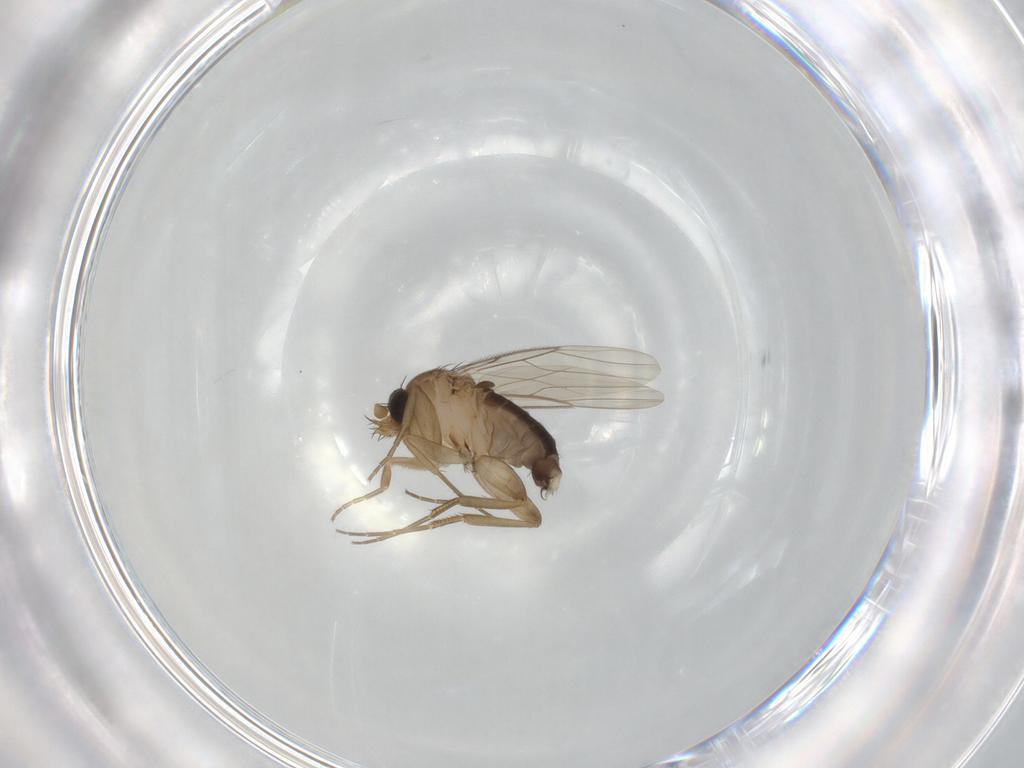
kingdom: Animalia
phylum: Arthropoda
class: Insecta
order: Diptera
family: Phoridae
